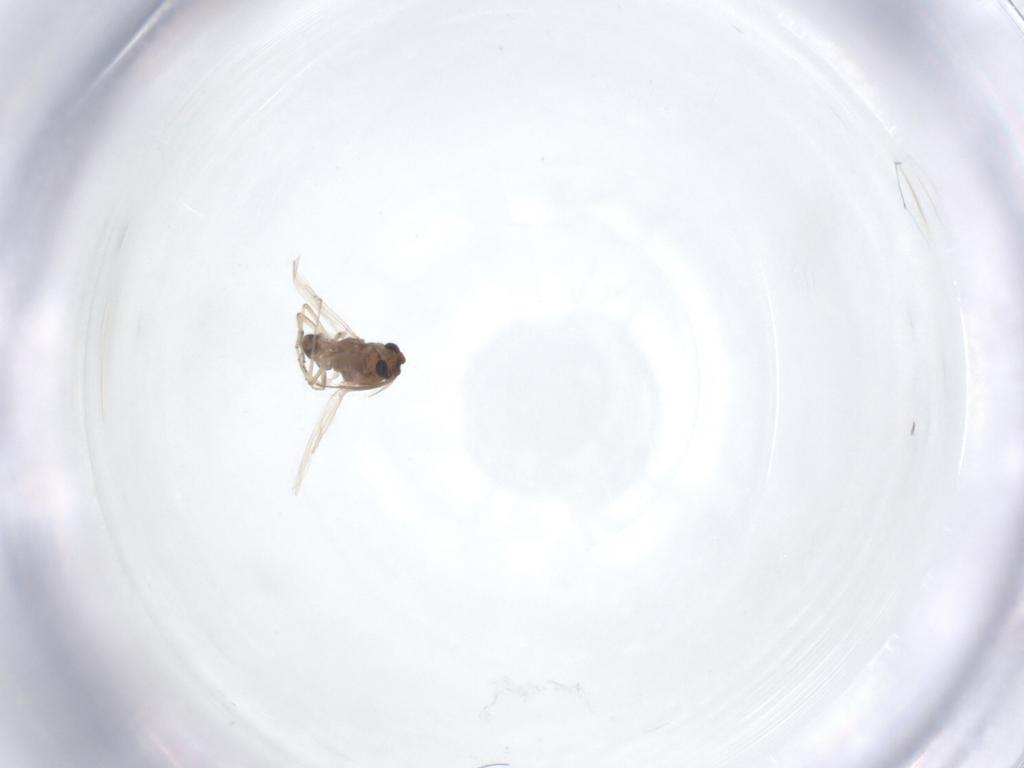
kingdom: Animalia
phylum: Arthropoda
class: Insecta
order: Diptera
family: Ceratopogonidae
